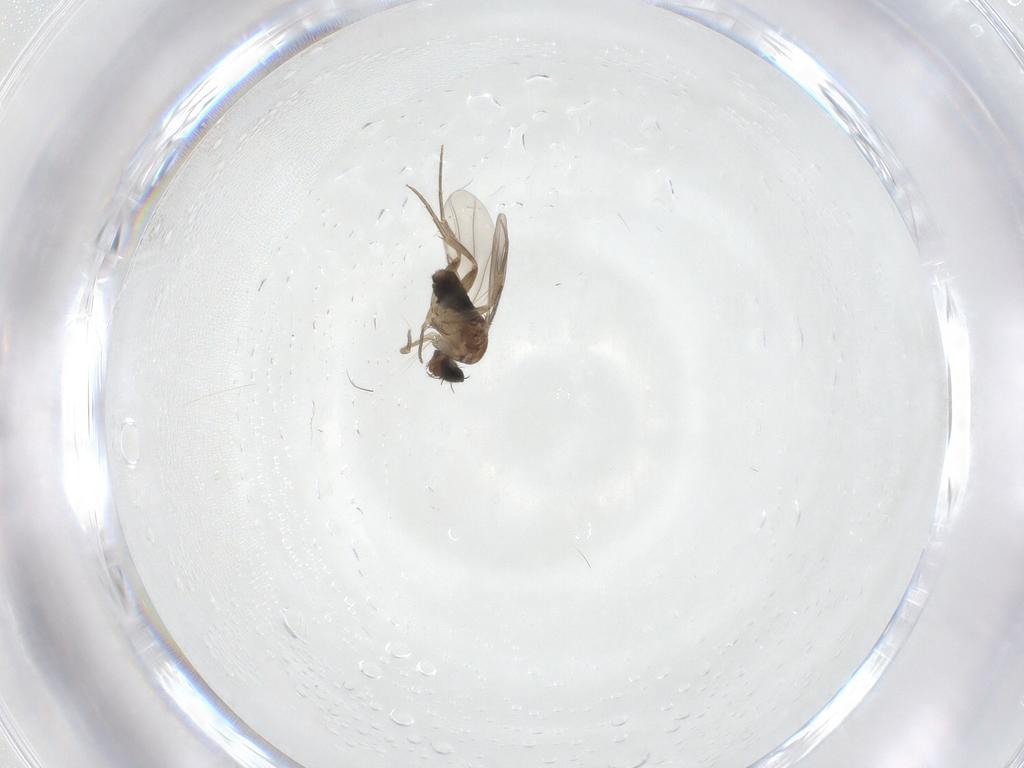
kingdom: Animalia
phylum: Arthropoda
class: Insecta
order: Diptera
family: Phoridae
